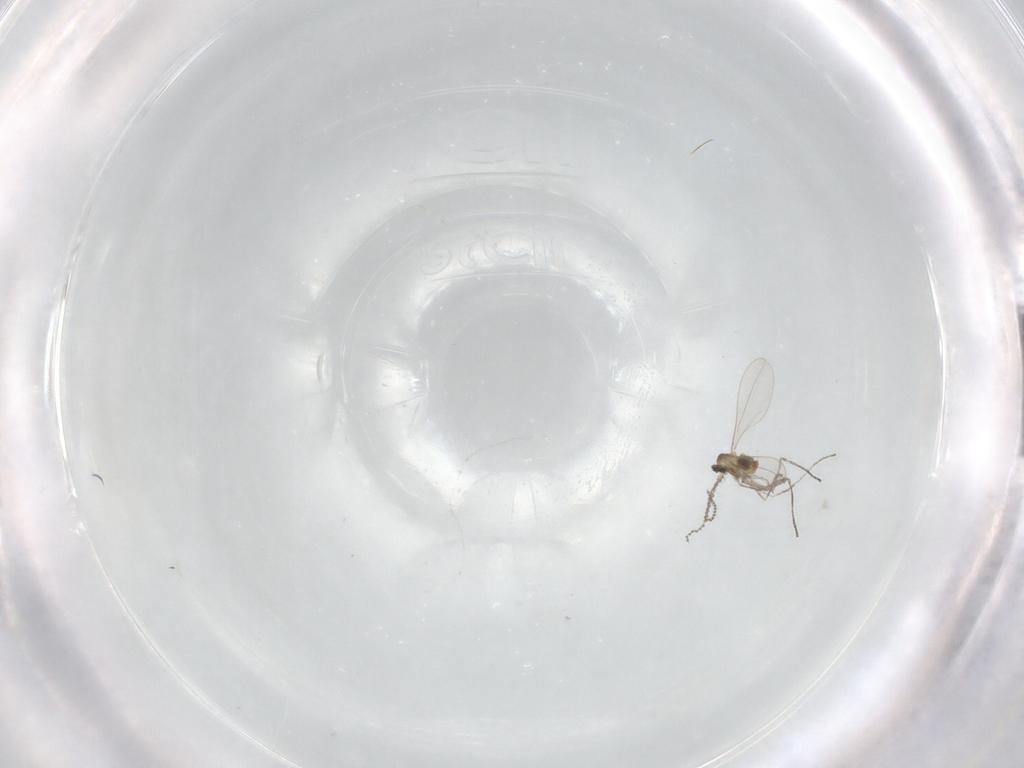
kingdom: Animalia
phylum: Arthropoda
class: Insecta
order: Diptera
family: Cecidomyiidae
